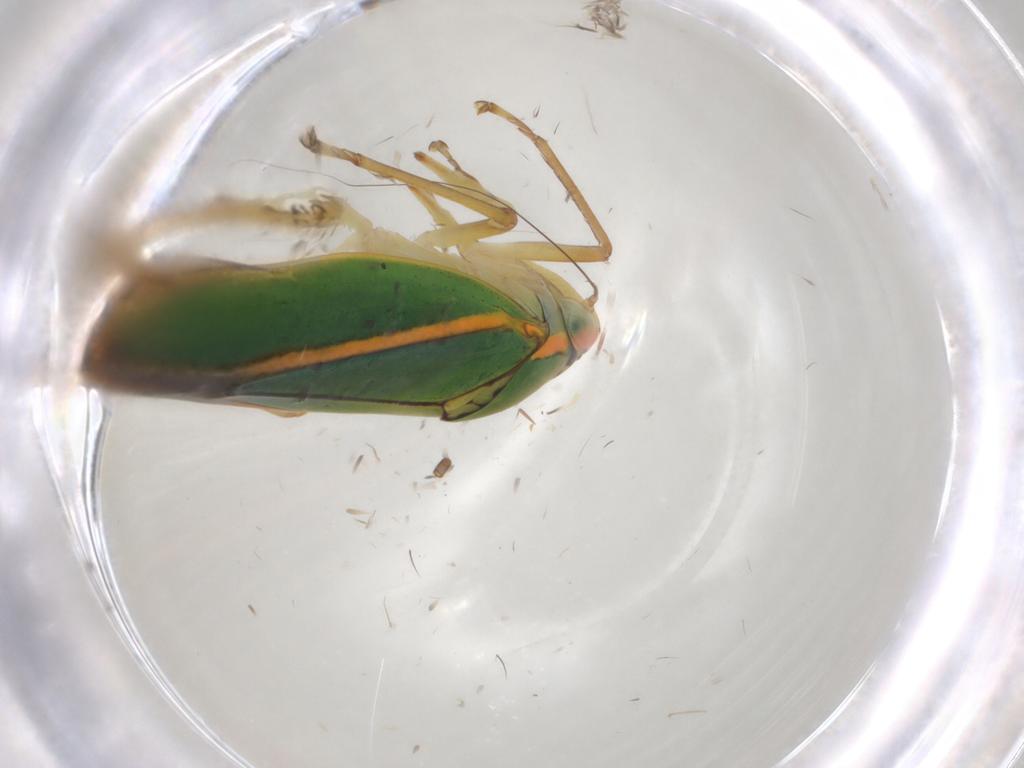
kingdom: Animalia
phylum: Arthropoda
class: Insecta
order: Hemiptera
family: Cicadellidae
